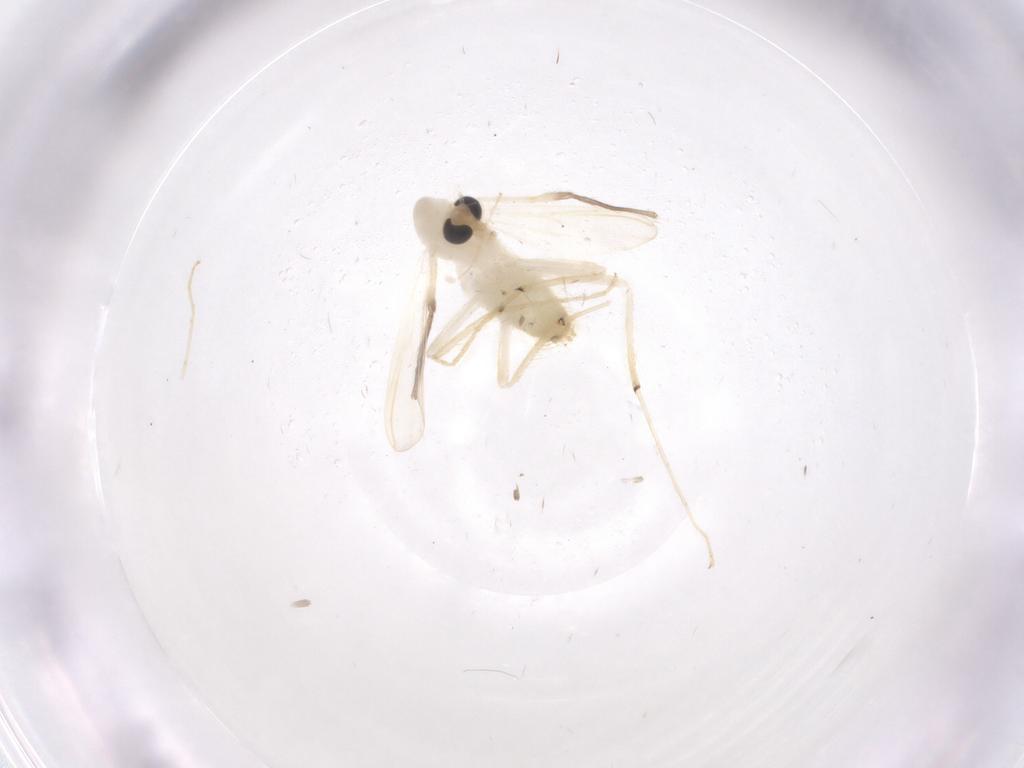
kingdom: Animalia
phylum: Arthropoda
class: Insecta
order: Diptera
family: Chironomidae
